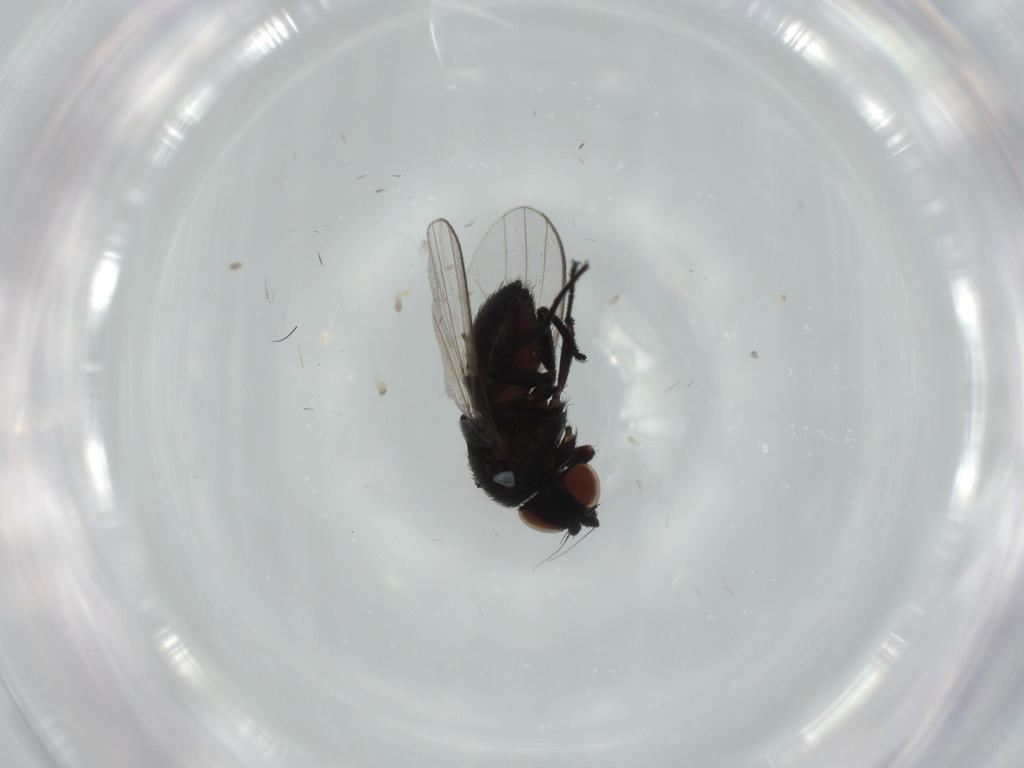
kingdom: Animalia
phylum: Arthropoda
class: Insecta
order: Diptera
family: Milichiidae
